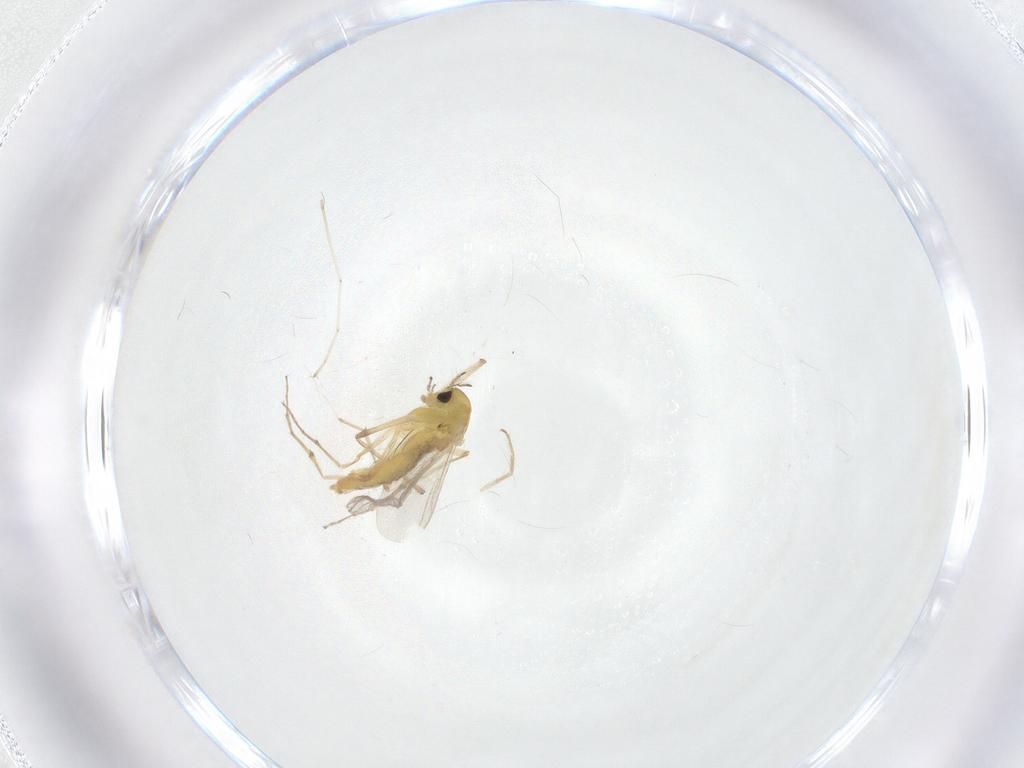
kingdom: Animalia
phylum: Arthropoda
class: Insecta
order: Diptera
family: Chironomidae
